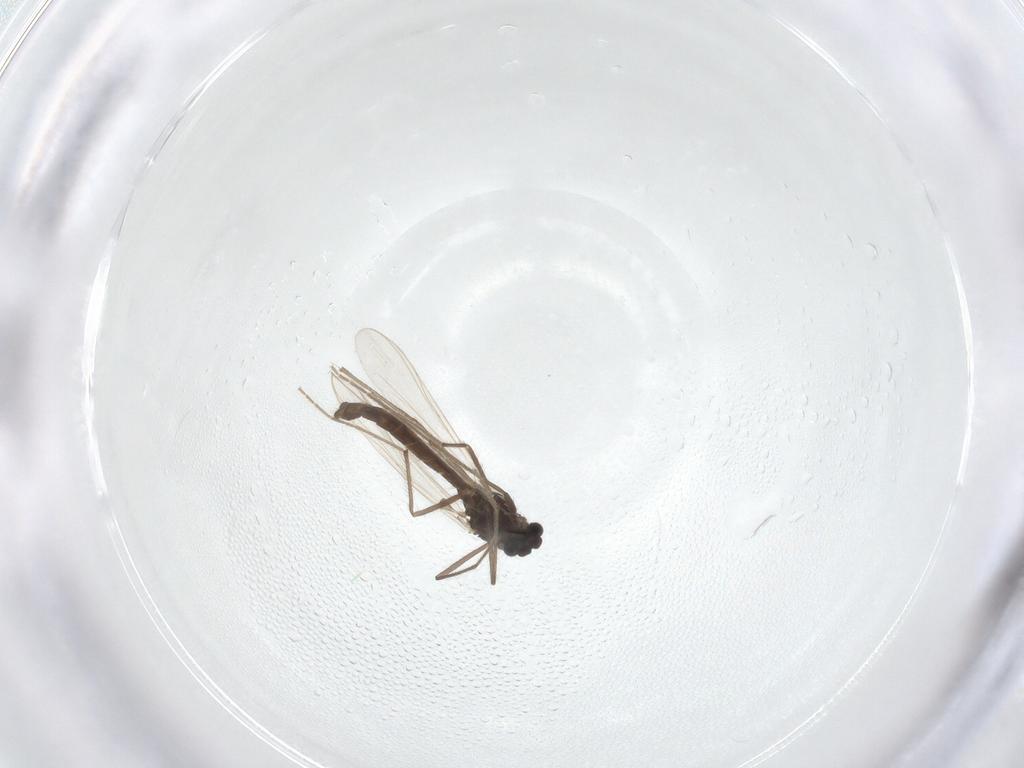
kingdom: Animalia
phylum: Arthropoda
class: Insecta
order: Diptera
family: Chironomidae
